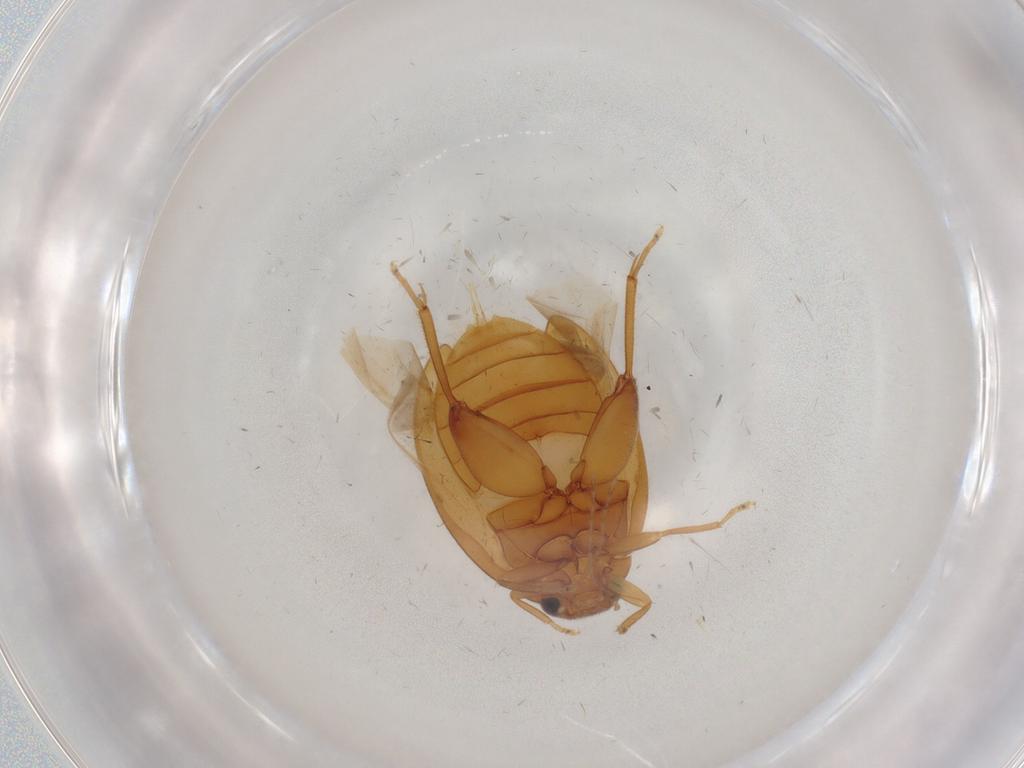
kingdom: Animalia
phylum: Arthropoda
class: Insecta
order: Coleoptera
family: Scirtidae
